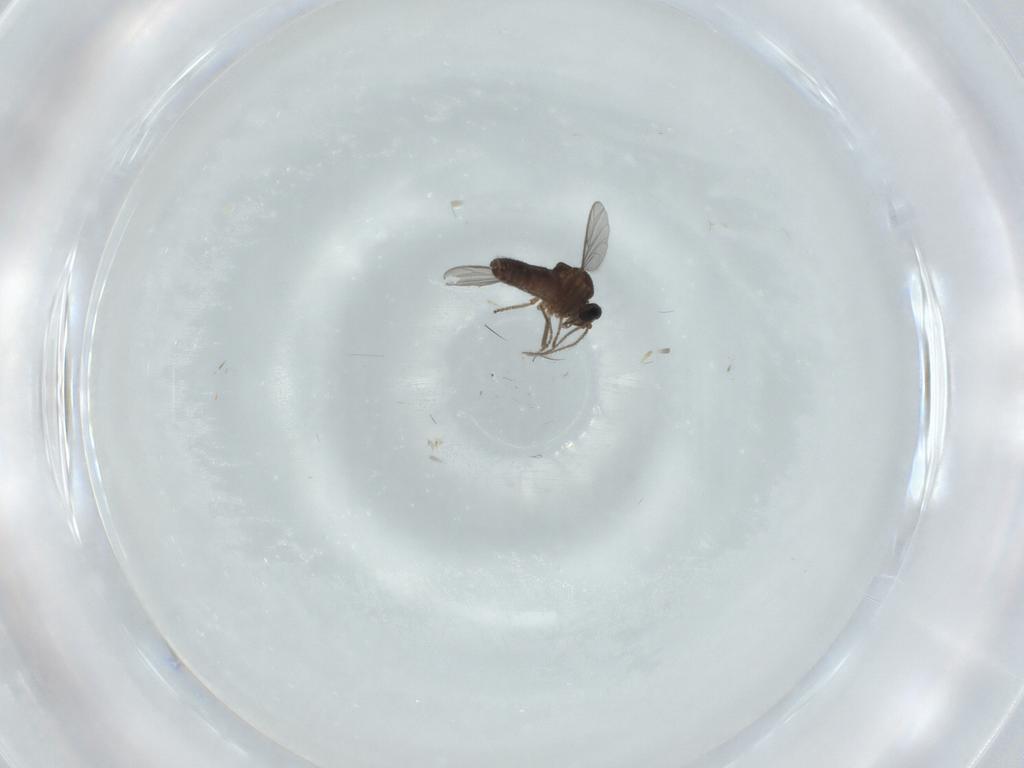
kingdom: Animalia
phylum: Arthropoda
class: Insecta
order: Diptera
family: Ceratopogonidae
